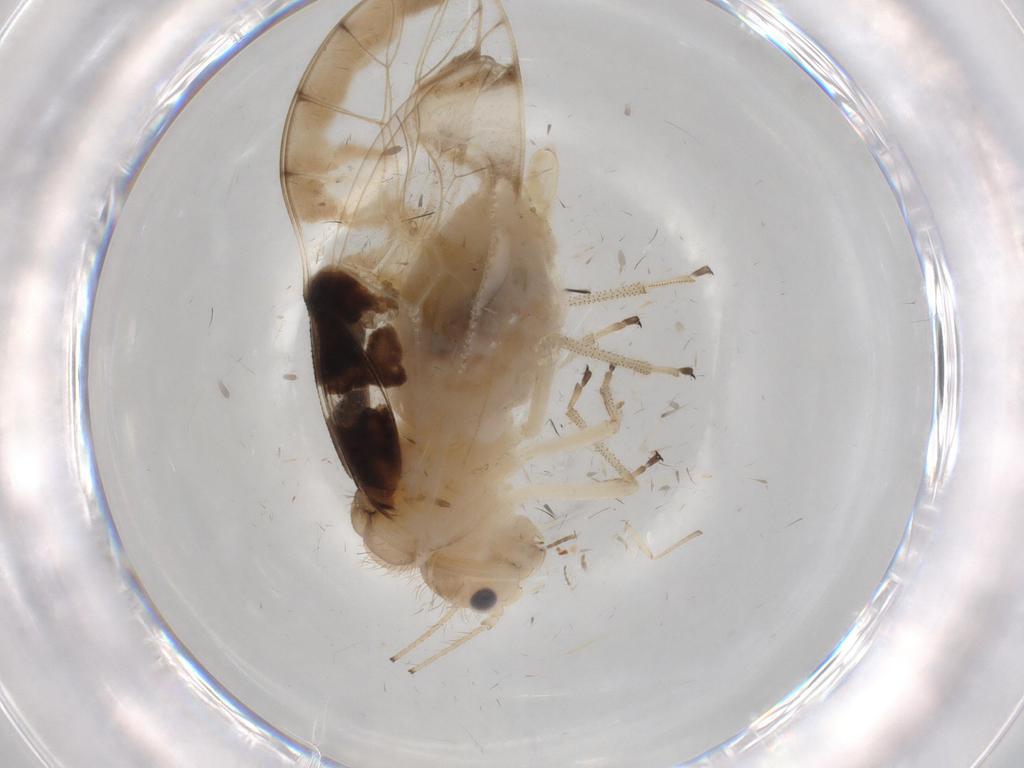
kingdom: Animalia
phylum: Arthropoda
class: Insecta
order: Psocodea
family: Amphipsocidae
